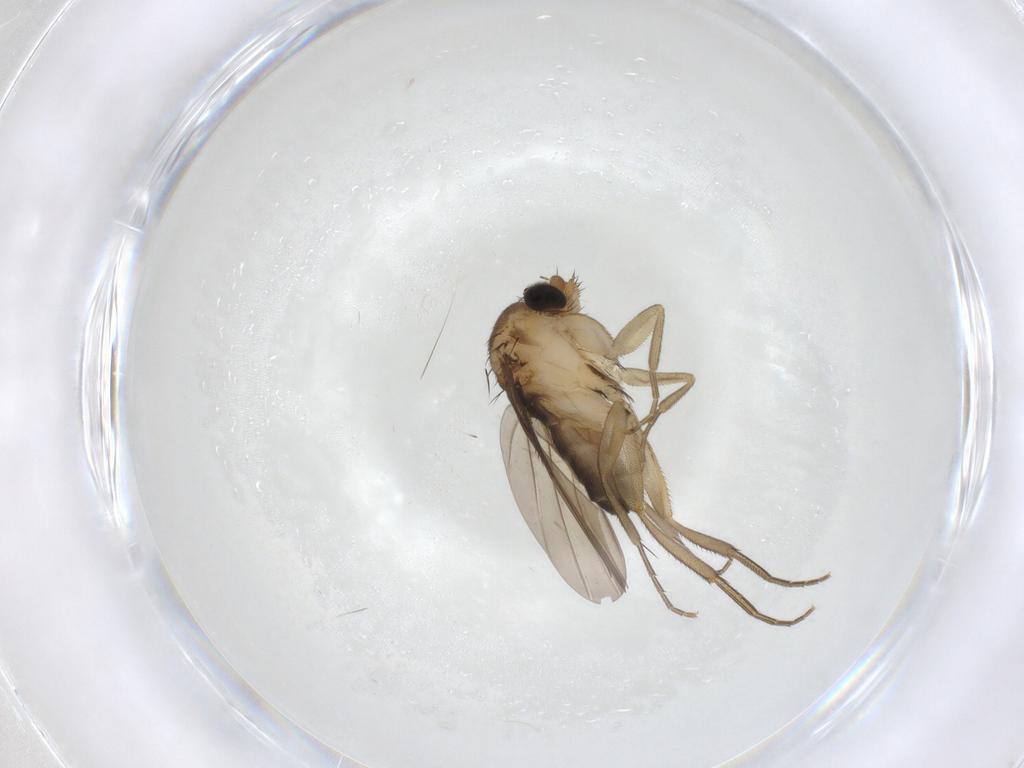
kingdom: Animalia
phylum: Arthropoda
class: Insecta
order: Diptera
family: Phoridae
